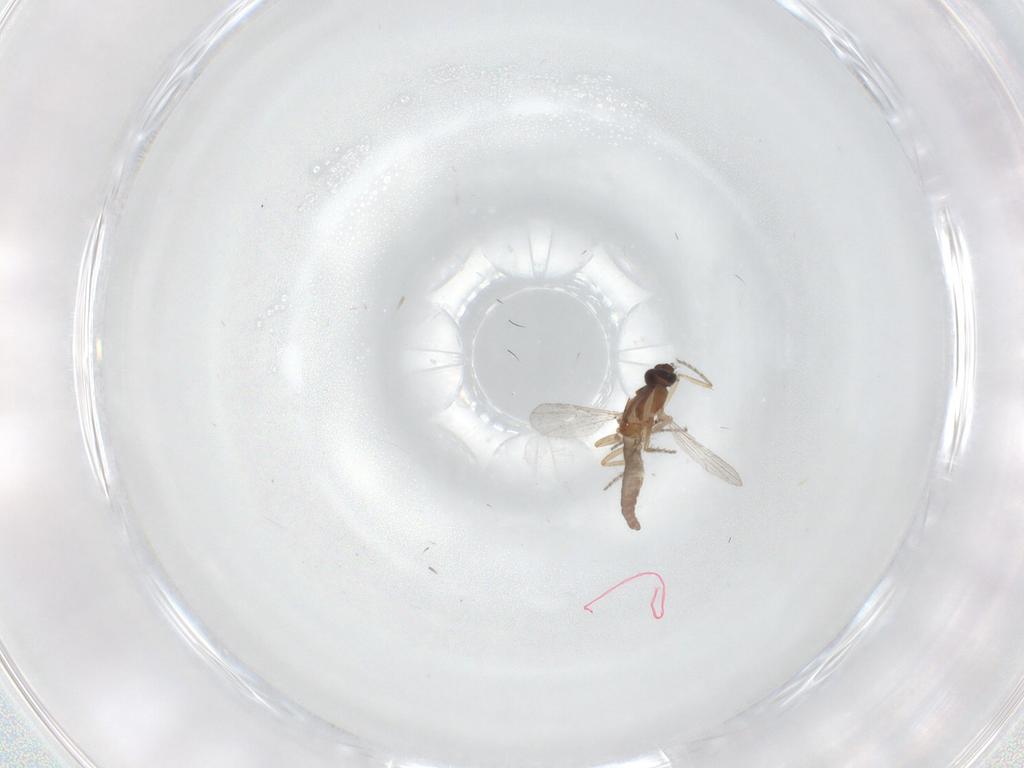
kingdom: Animalia
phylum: Arthropoda
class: Insecta
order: Diptera
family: Ceratopogonidae
